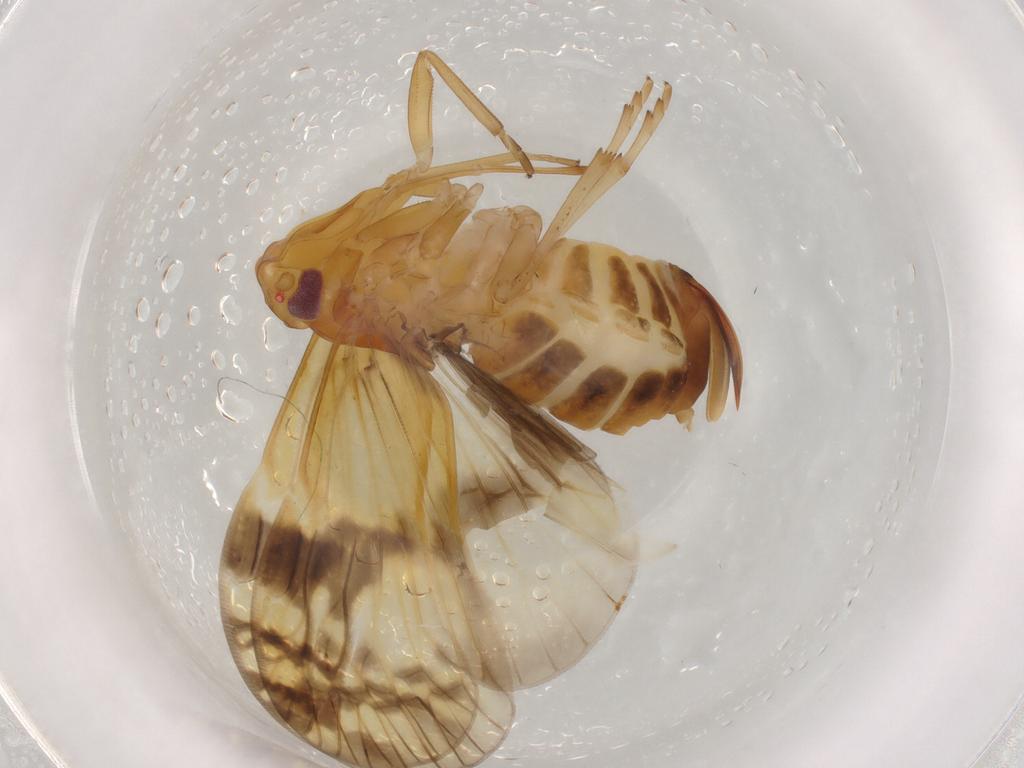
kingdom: Animalia
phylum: Arthropoda
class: Insecta
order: Hemiptera
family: Cixiidae
